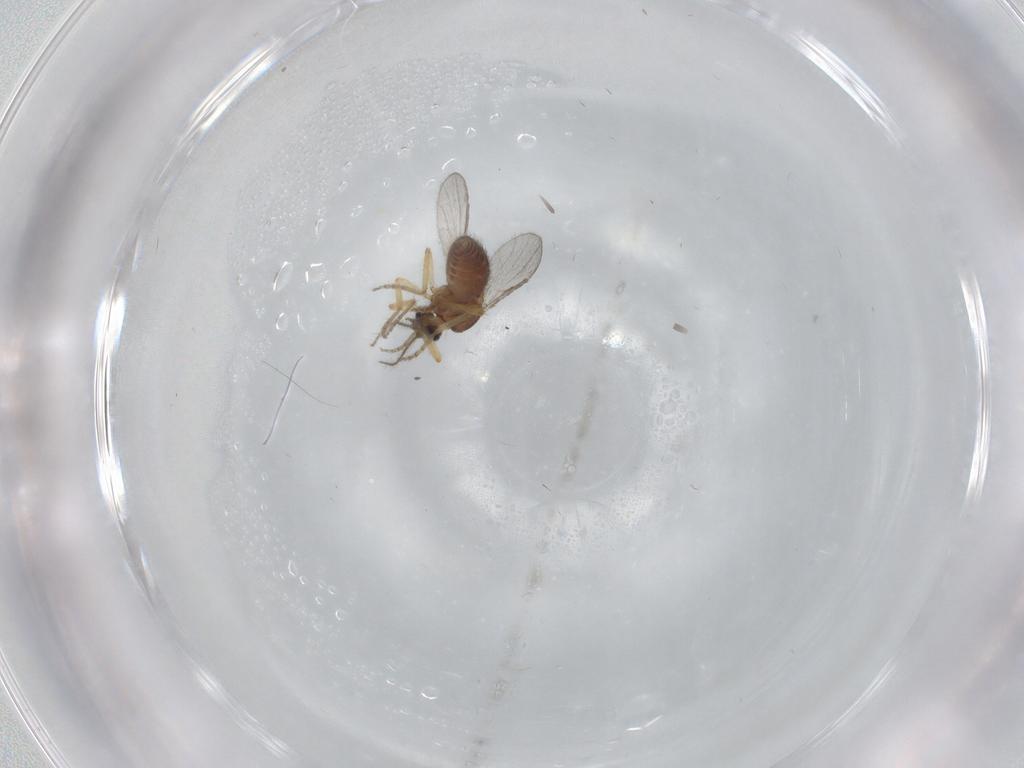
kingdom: Animalia
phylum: Arthropoda
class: Insecta
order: Diptera
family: Ceratopogonidae
